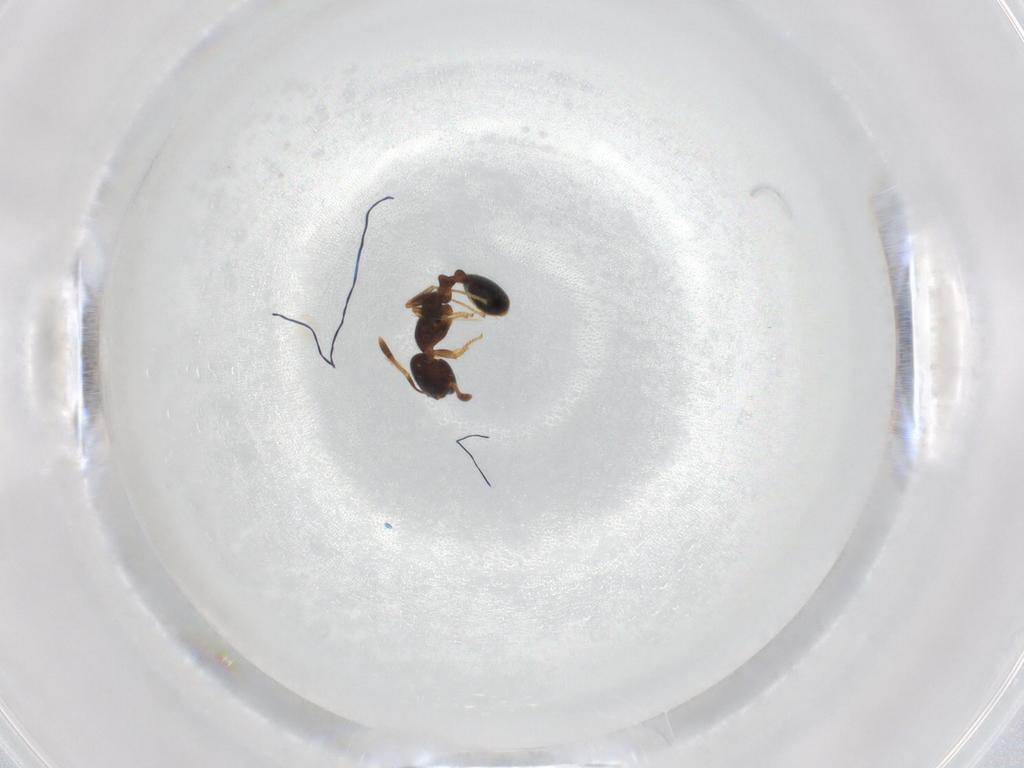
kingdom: Animalia
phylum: Arthropoda
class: Insecta
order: Hymenoptera
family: Formicidae
